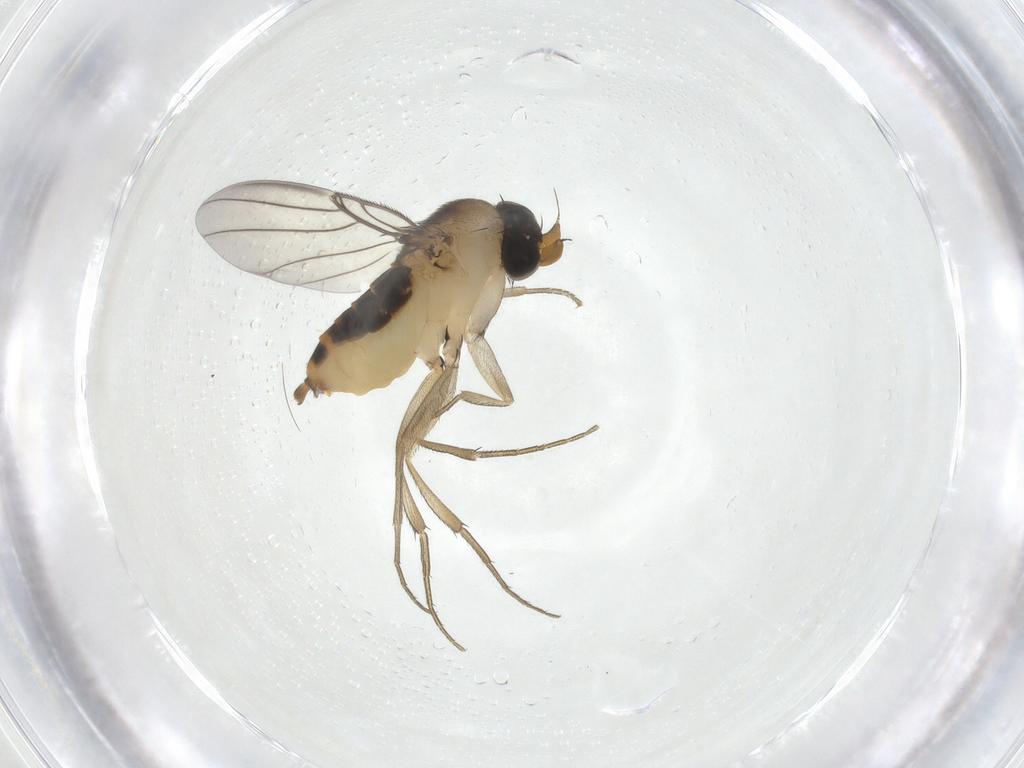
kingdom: Animalia
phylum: Arthropoda
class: Insecta
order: Diptera
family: Phoridae
